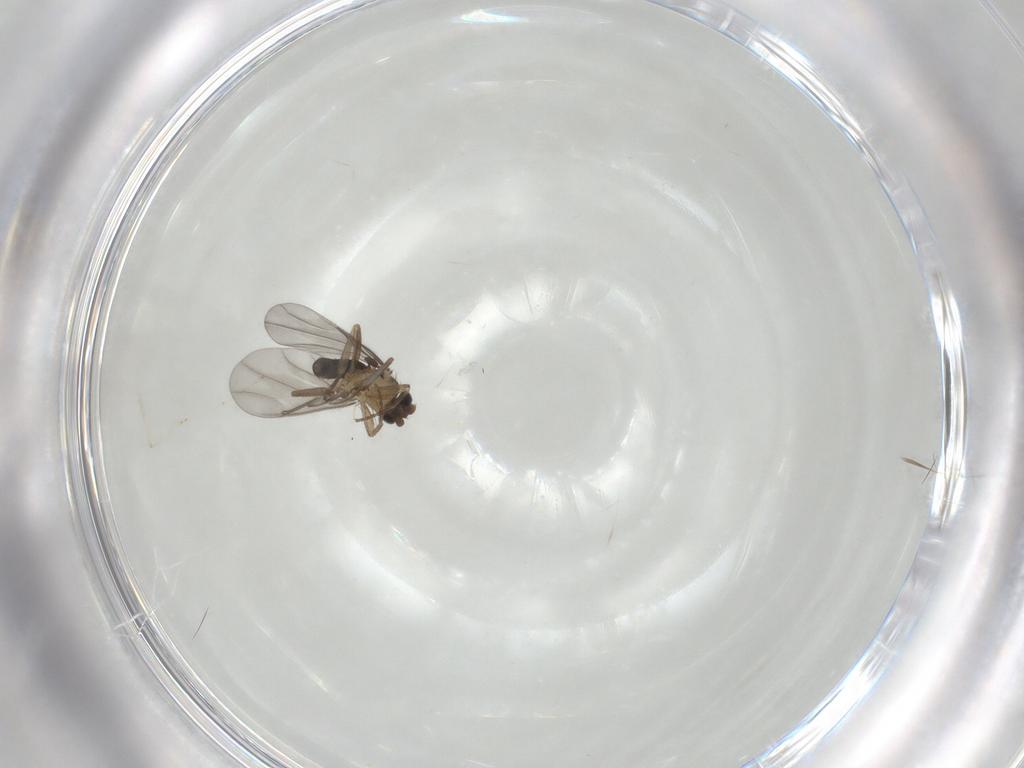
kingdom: Animalia
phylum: Arthropoda
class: Insecta
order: Diptera
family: Phoridae
